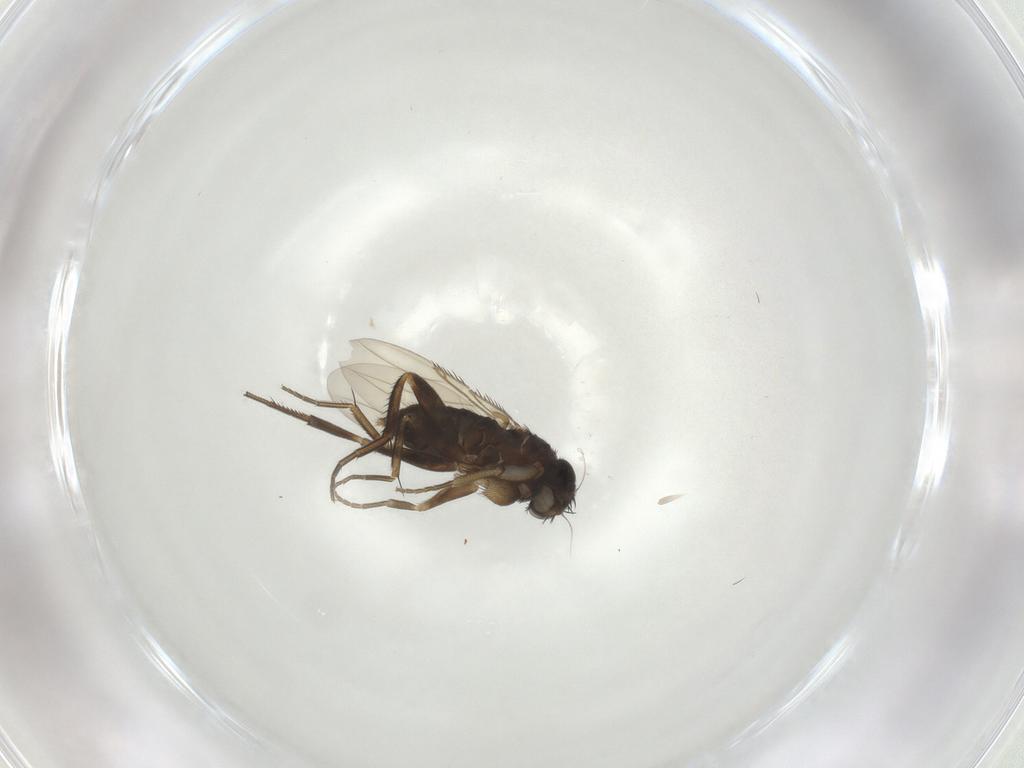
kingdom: Animalia
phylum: Arthropoda
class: Insecta
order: Diptera
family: Phoridae
